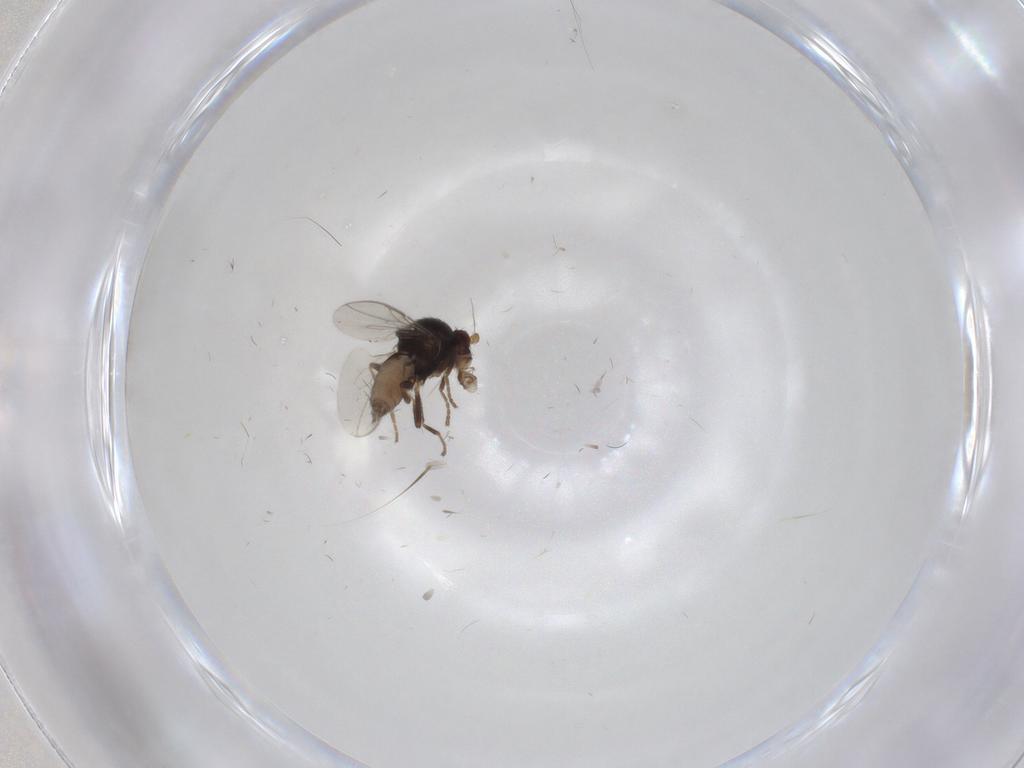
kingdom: Animalia
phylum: Arthropoda
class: Insecta
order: Diptera
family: Sphaeroceridae
